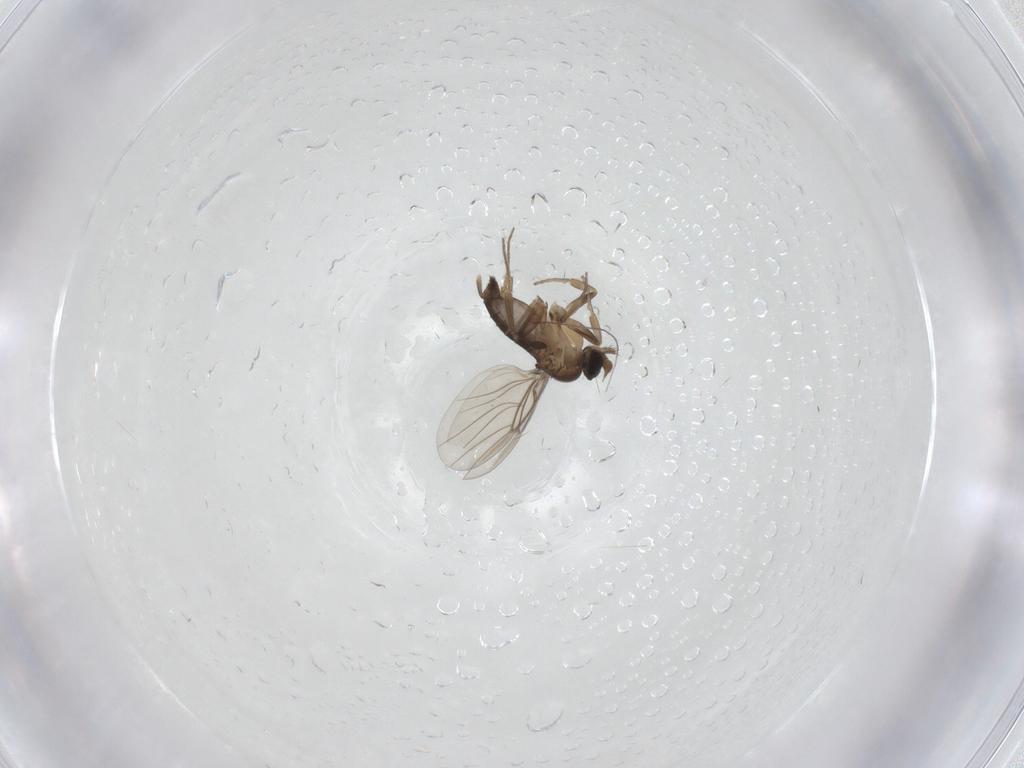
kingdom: Animalia
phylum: Arthropoda
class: Insecta
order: Diptera
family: Phoridae
